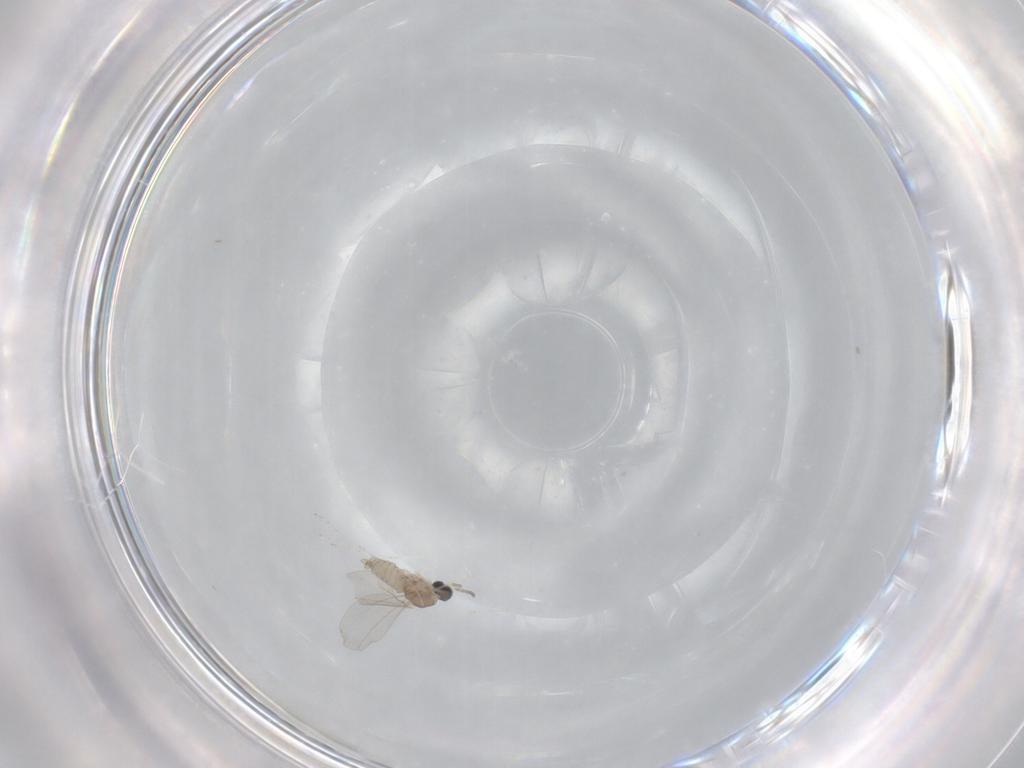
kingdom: Animalia
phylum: Arthropoda
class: Insecta
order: Diptera
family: Cecidomyiidae
